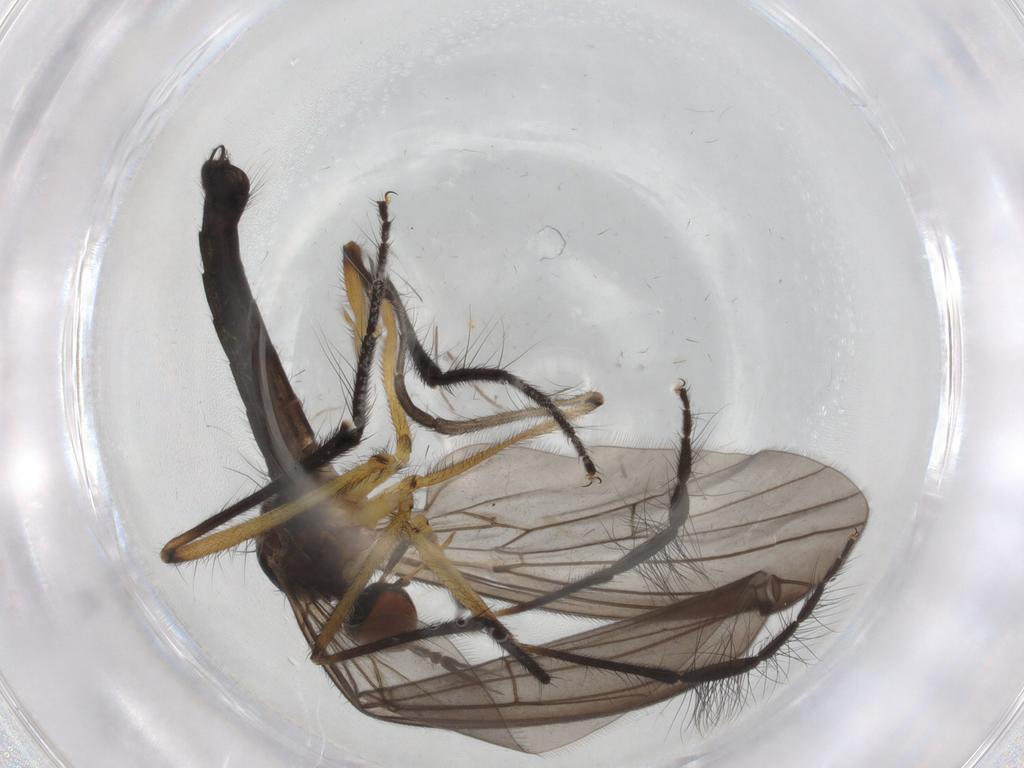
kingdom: Animalia
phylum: Arthropoda
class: Insecta
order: Diptera
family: Empididae
